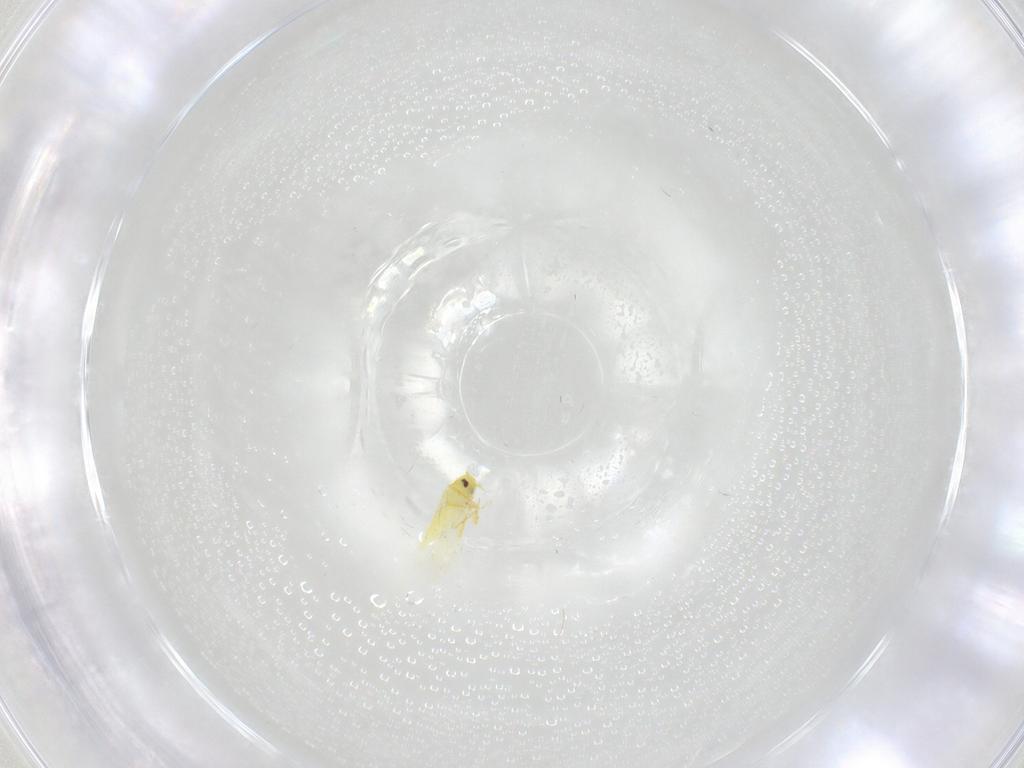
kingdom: Animalia
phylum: Arthropoda
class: Insecta
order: Hemiptera
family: Aleyrodidae
